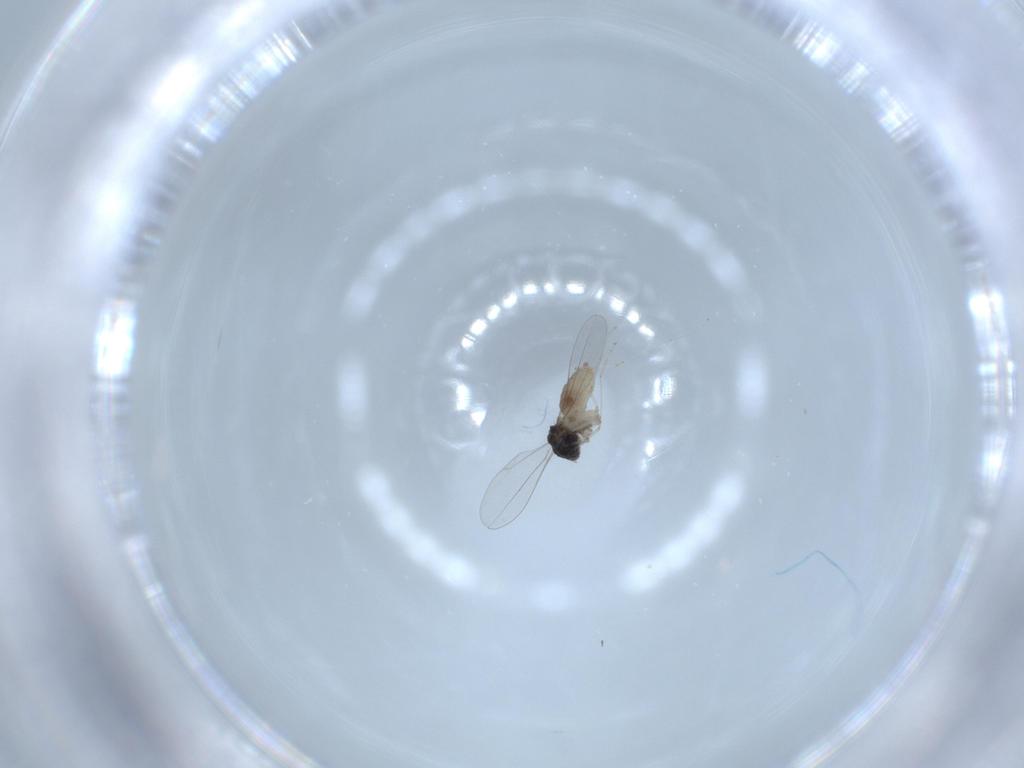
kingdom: Animalia
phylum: Arthropoda
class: Insecta
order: Diptera
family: Cecidomyiidae
